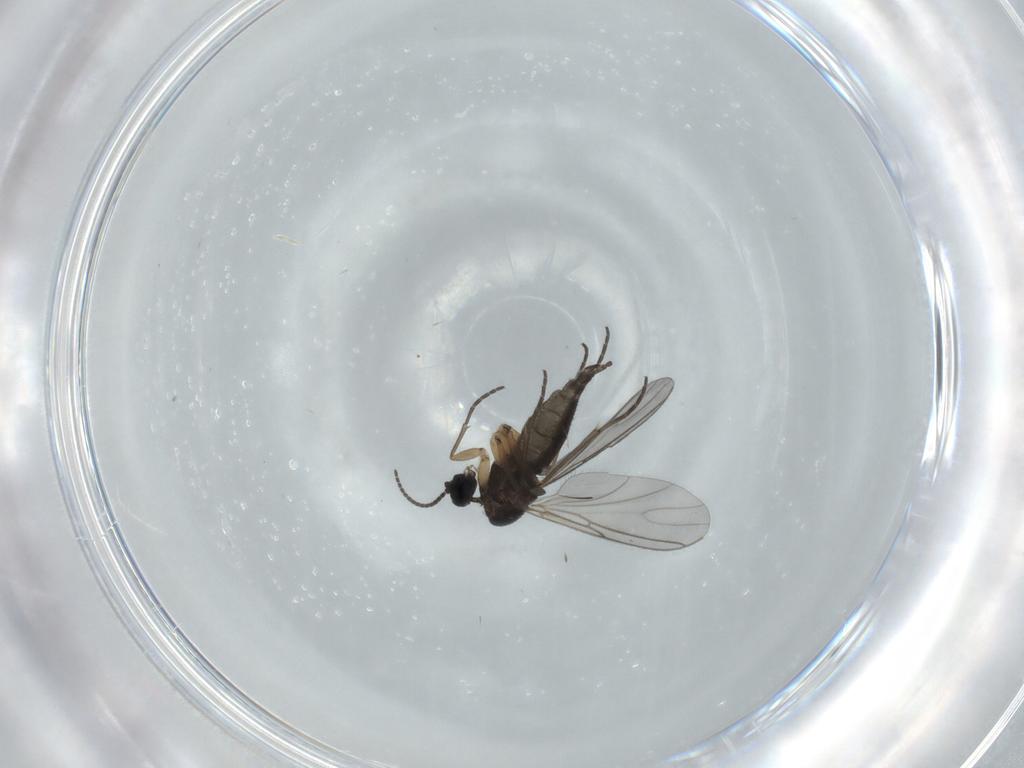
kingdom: Animalia
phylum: Arthropoda
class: Insecta
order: Diptera
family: Sciaridae
